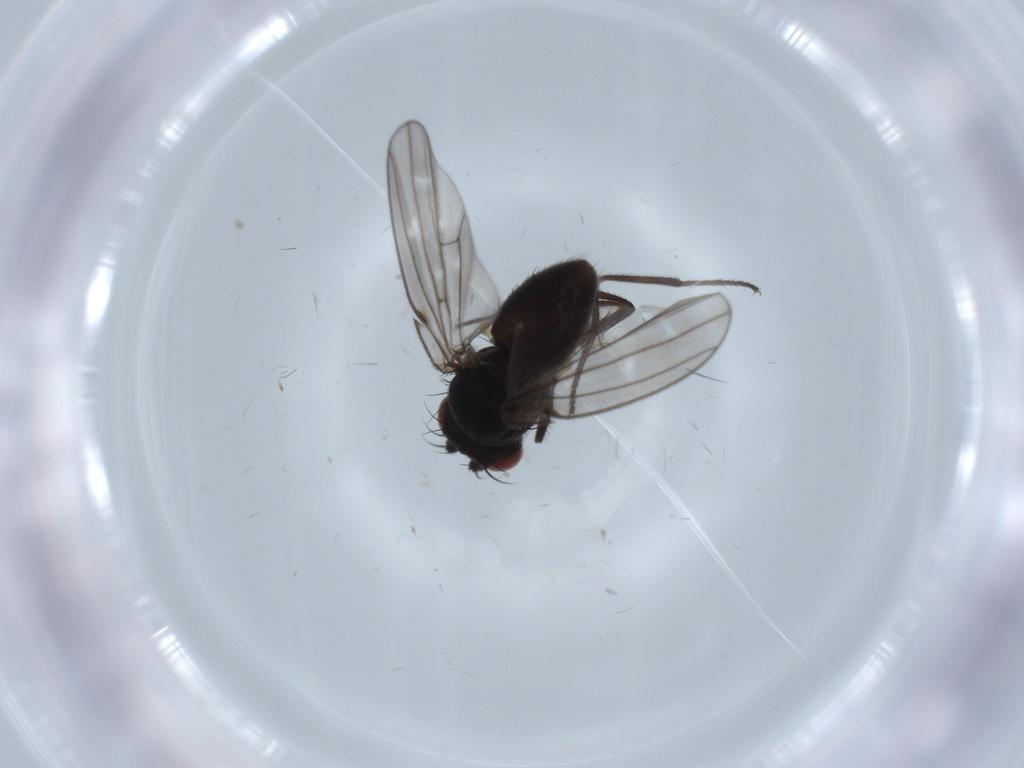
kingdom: Animalia
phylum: Arthropoda
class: Insecta
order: Diptera
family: Ephydridae
